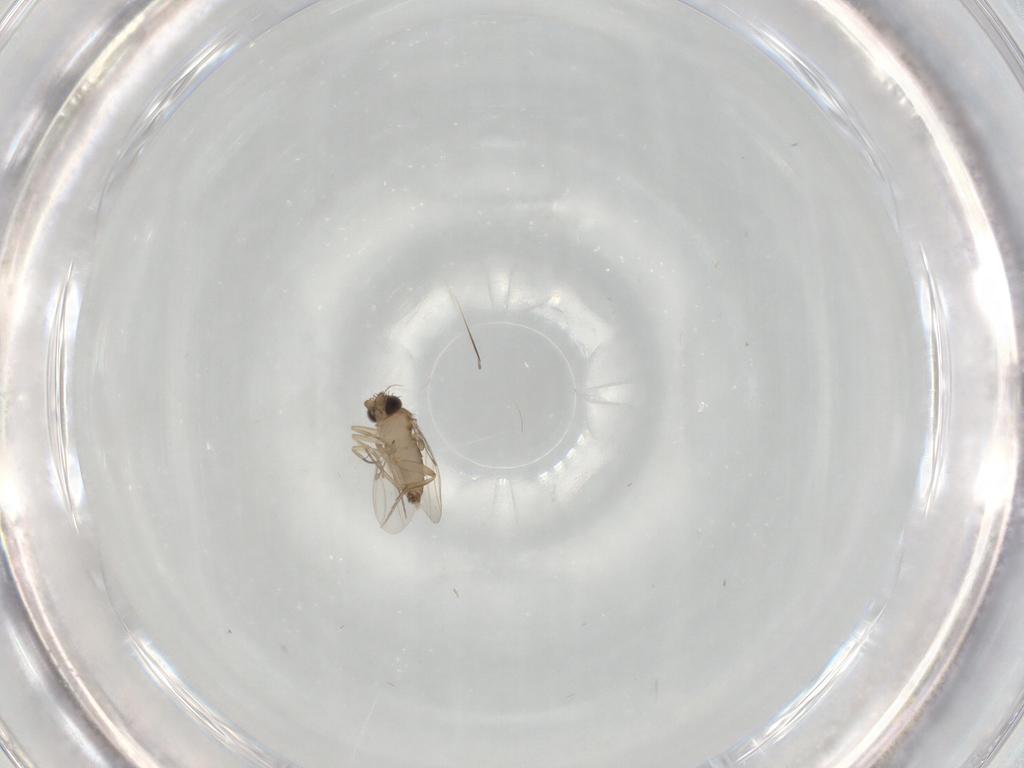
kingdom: Animalia
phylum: Arthropoda
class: Insecta
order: Diptera
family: Phoridae
